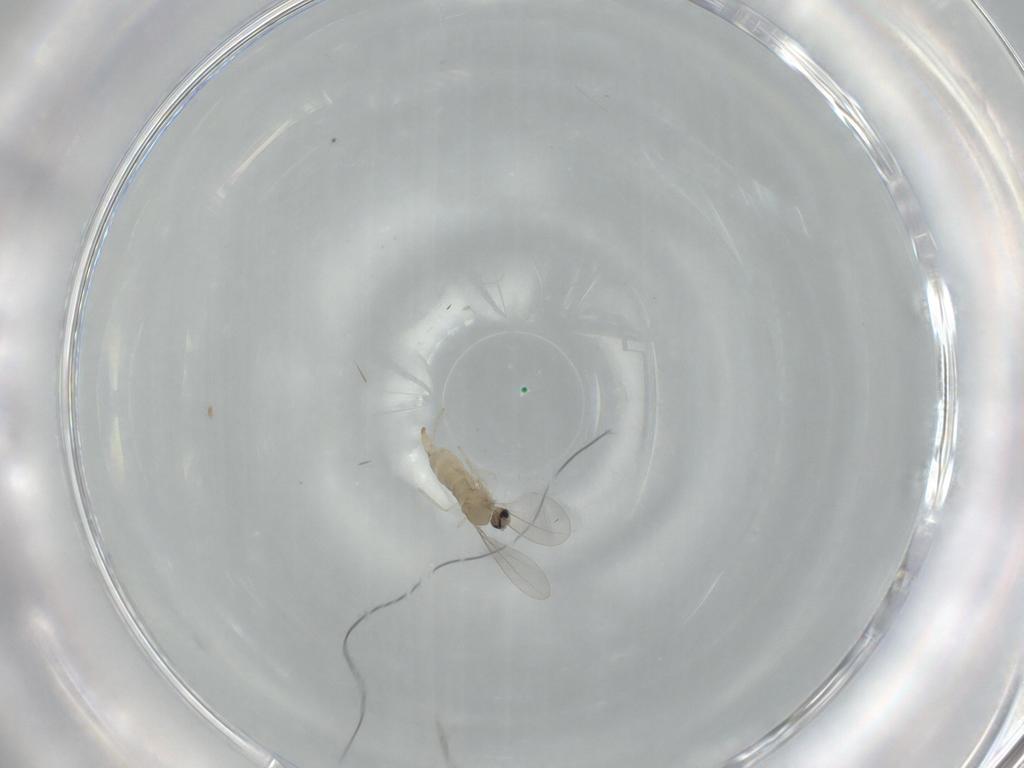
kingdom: Animalia
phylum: Arthropoda
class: Insecta
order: Diptera
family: Cecidomyiidae
